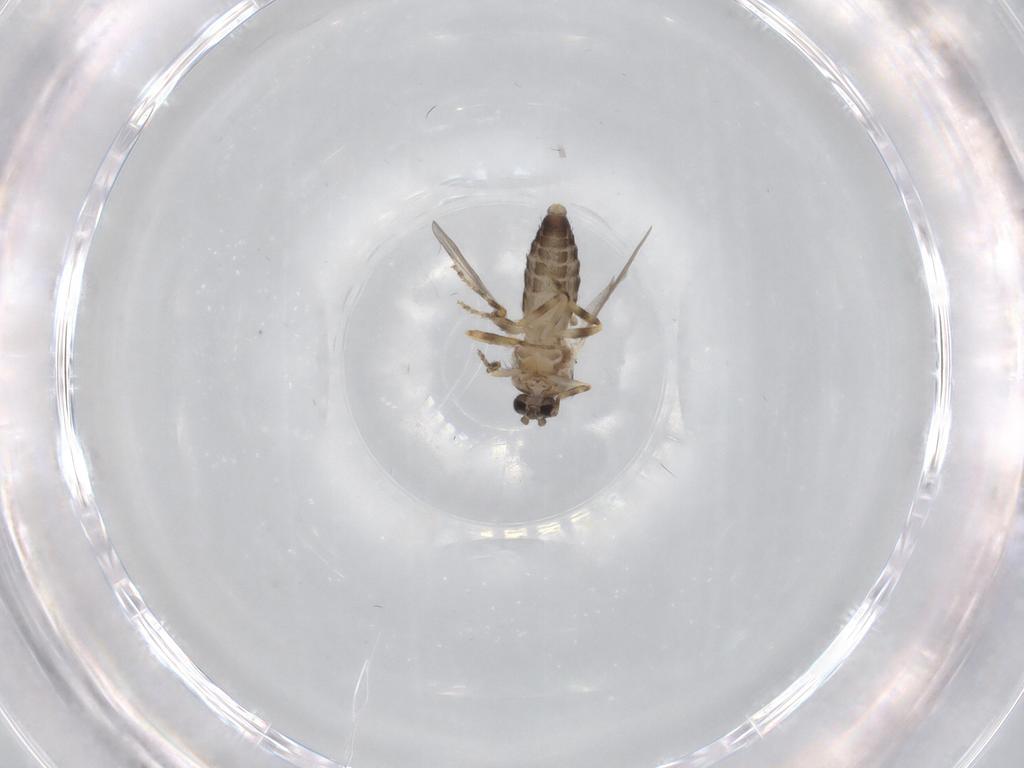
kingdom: Animalia
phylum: Arthropoda
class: Insecta
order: Diptera
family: Ceratopogonidae
